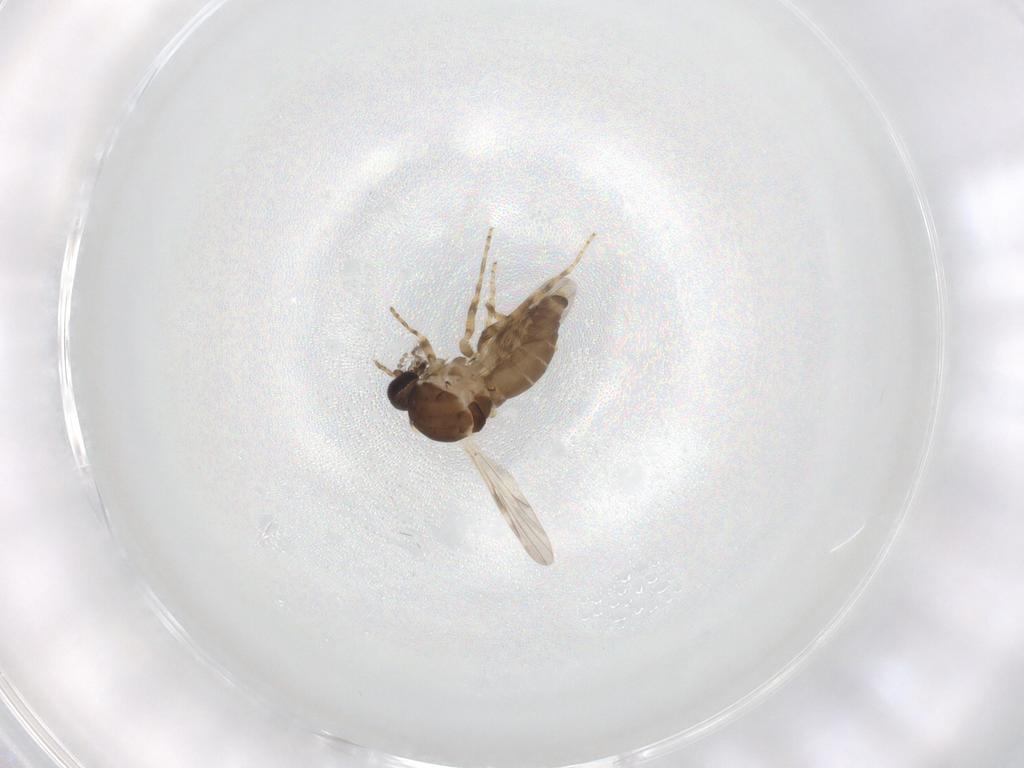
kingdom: Animalia
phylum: Arthropoda
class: Insecta
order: Diptera
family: Ceratopogonidae
